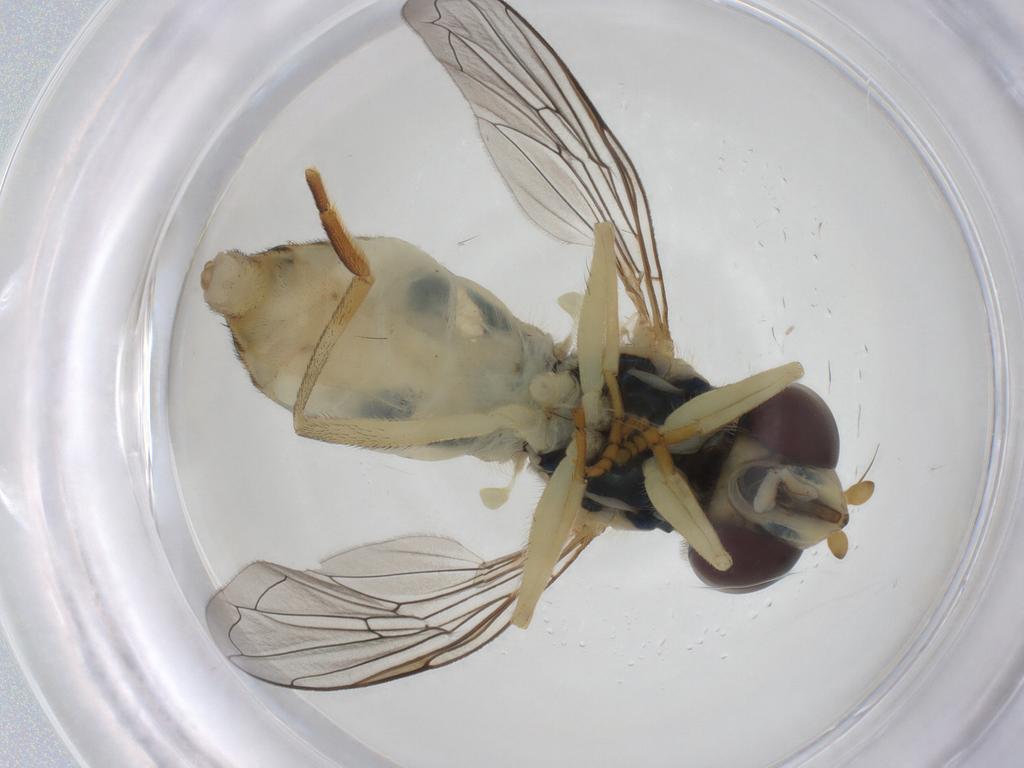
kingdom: Animalia
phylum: Arthropoda
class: Insecta
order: Diptera
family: Syrphidae
